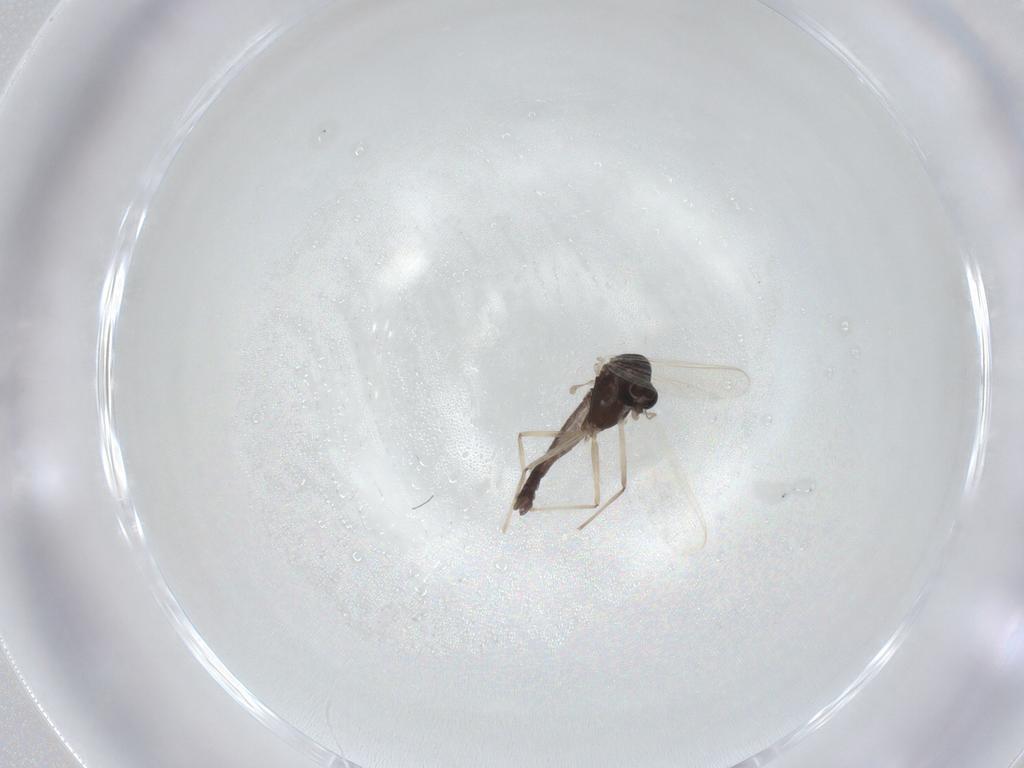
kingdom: Animalia
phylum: Arthropoda
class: Insecta
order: Diptera
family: Chironomidae
